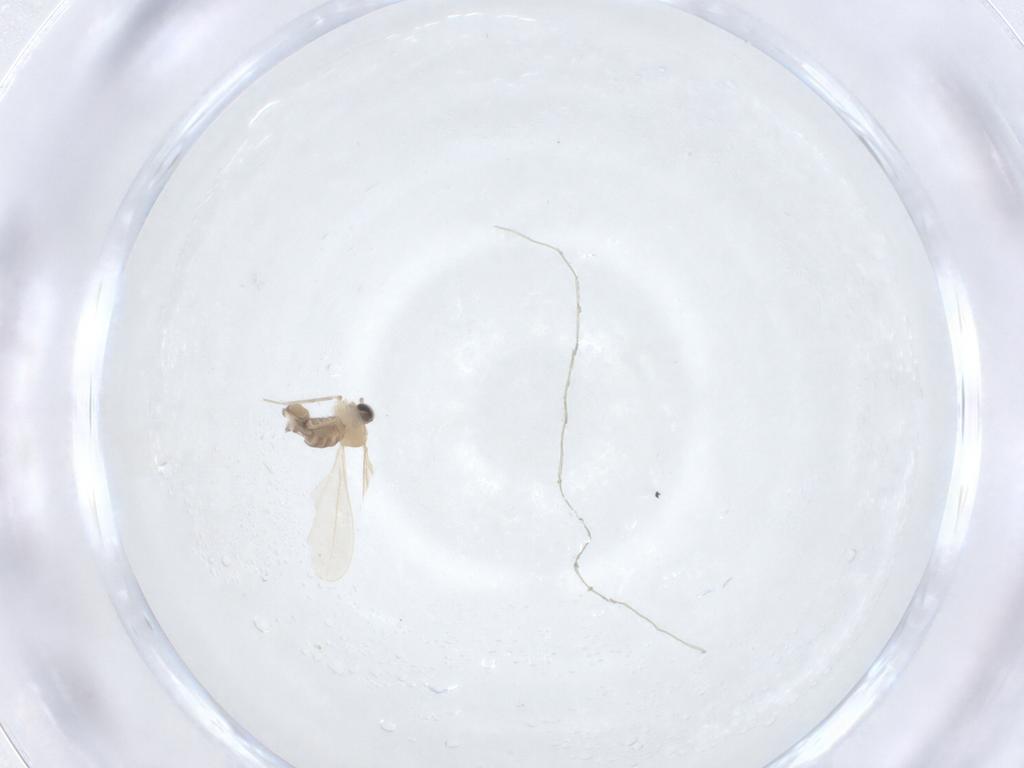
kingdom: Animalia
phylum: Arthropoda
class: Insecta
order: Diptera
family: Cecidomyiidae
